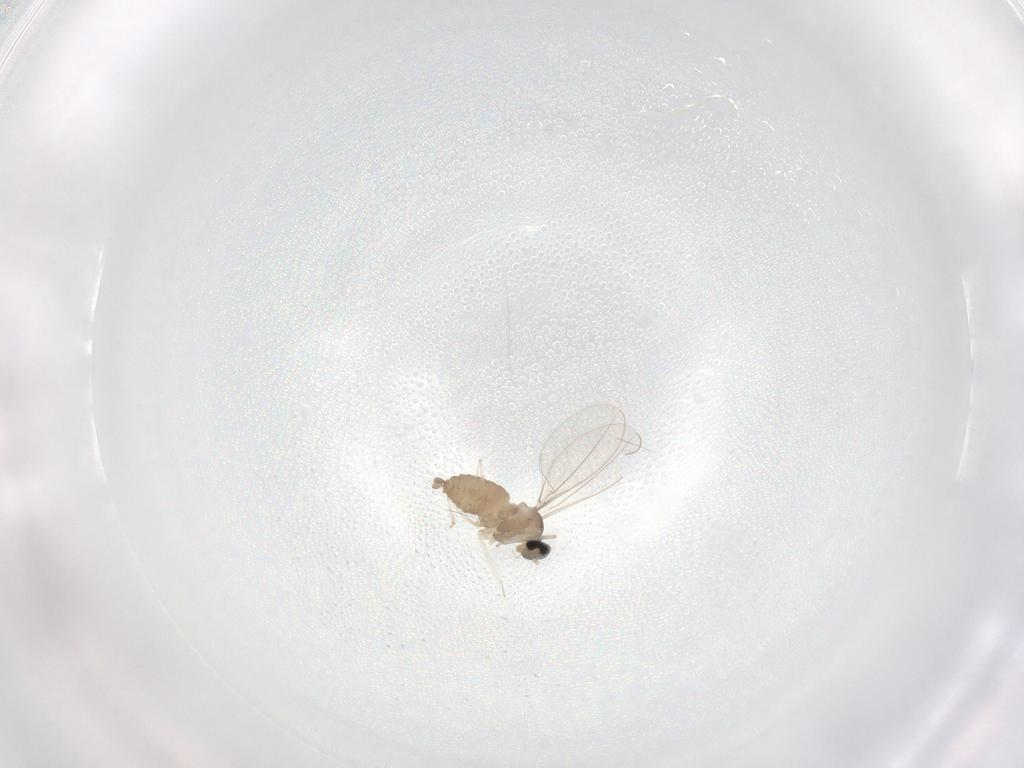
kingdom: Animalia
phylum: Arthropoda
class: Insecta
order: Diptera
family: Cecidomyiidae
